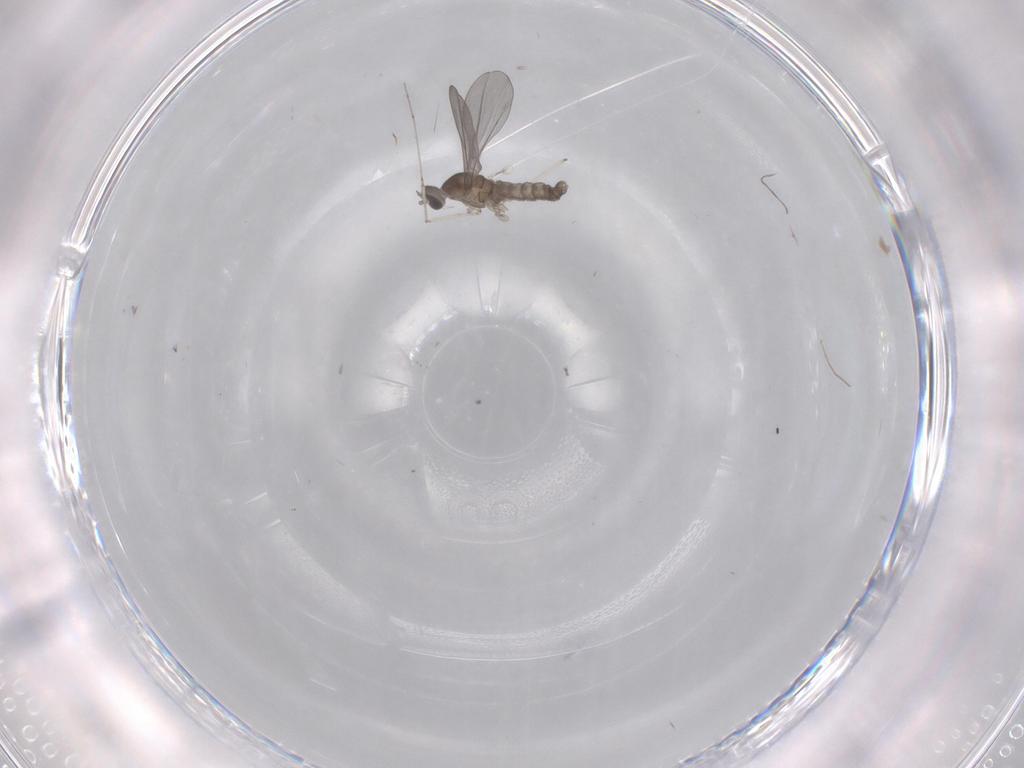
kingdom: Animalia
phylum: Arthropoda
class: Insecta
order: Diptera
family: Cecidomyiidae
